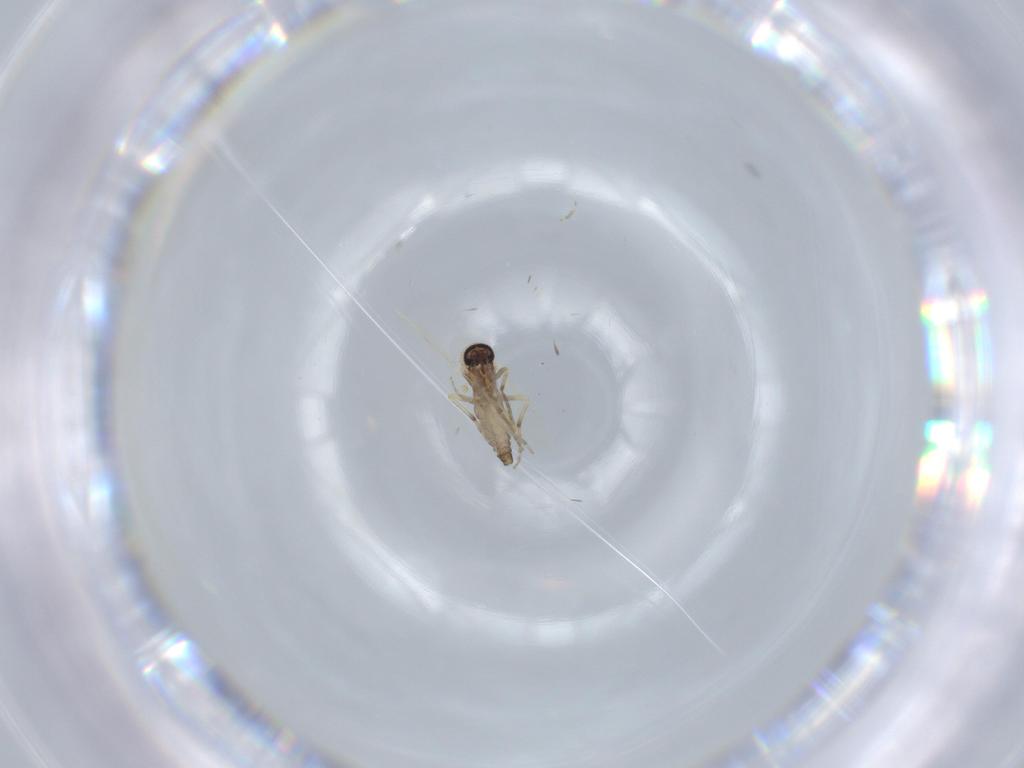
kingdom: Animalia
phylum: Arthropoda
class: Insecta
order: Diptera
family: Ceratopogonidae
